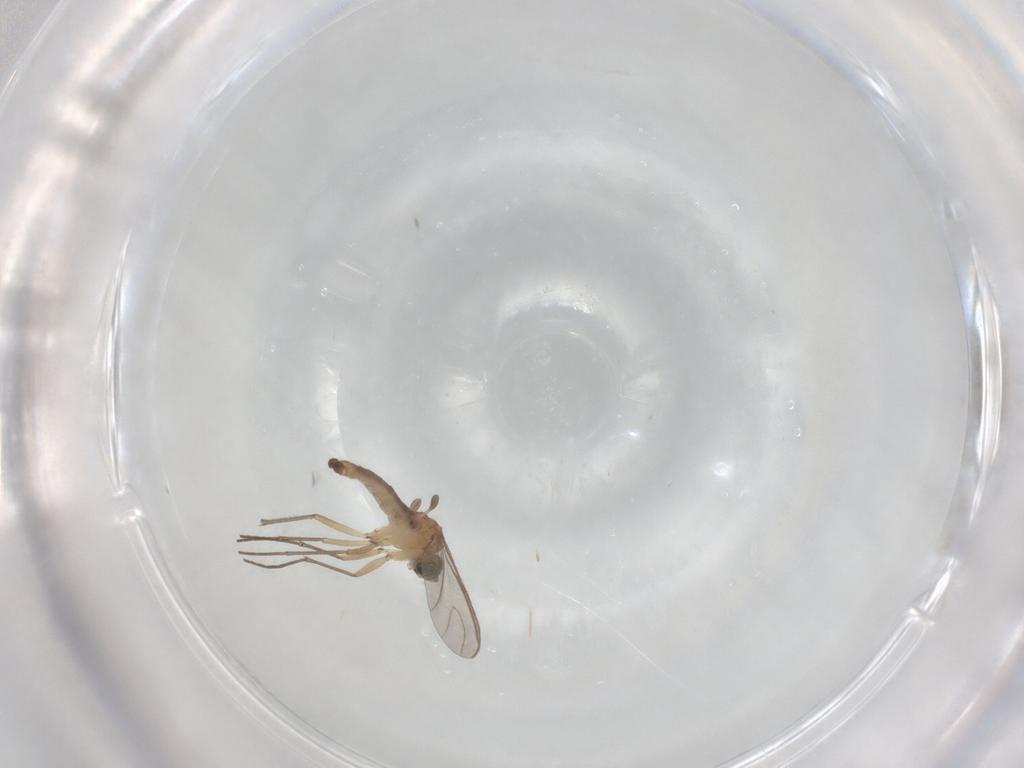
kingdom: Animalia
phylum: Arthropoda
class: Insecta
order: Diptera
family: Sciaridae
